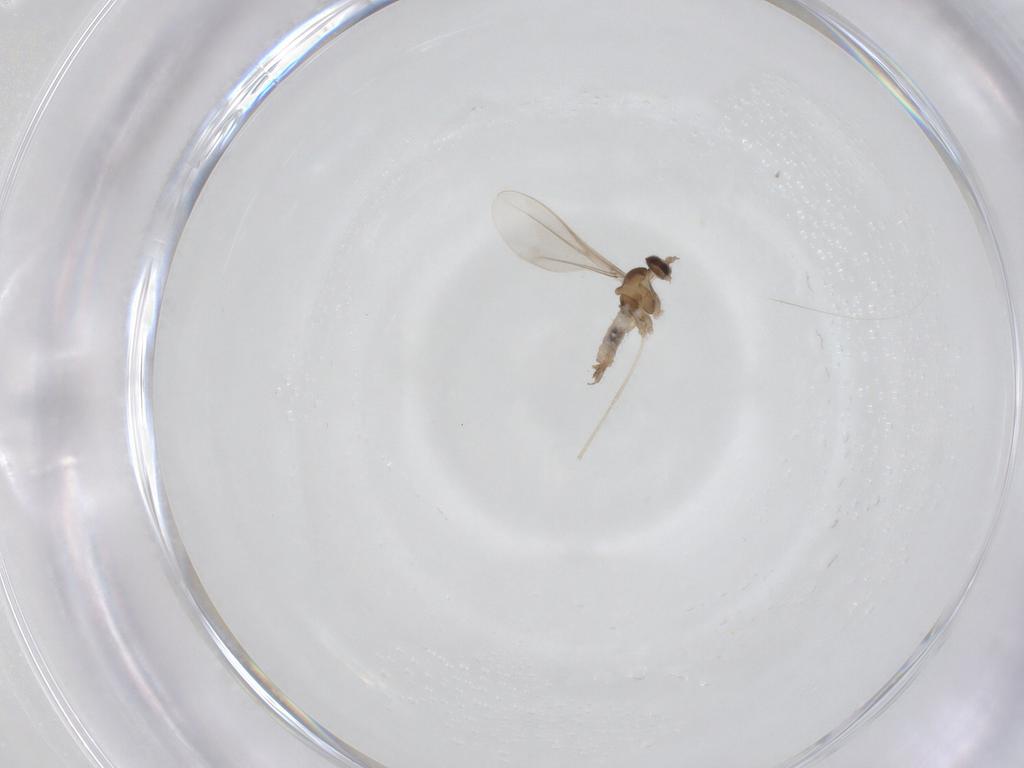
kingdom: Animalia
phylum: Arthropoda
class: Insecta
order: Diptera
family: Cecidomyiidae
